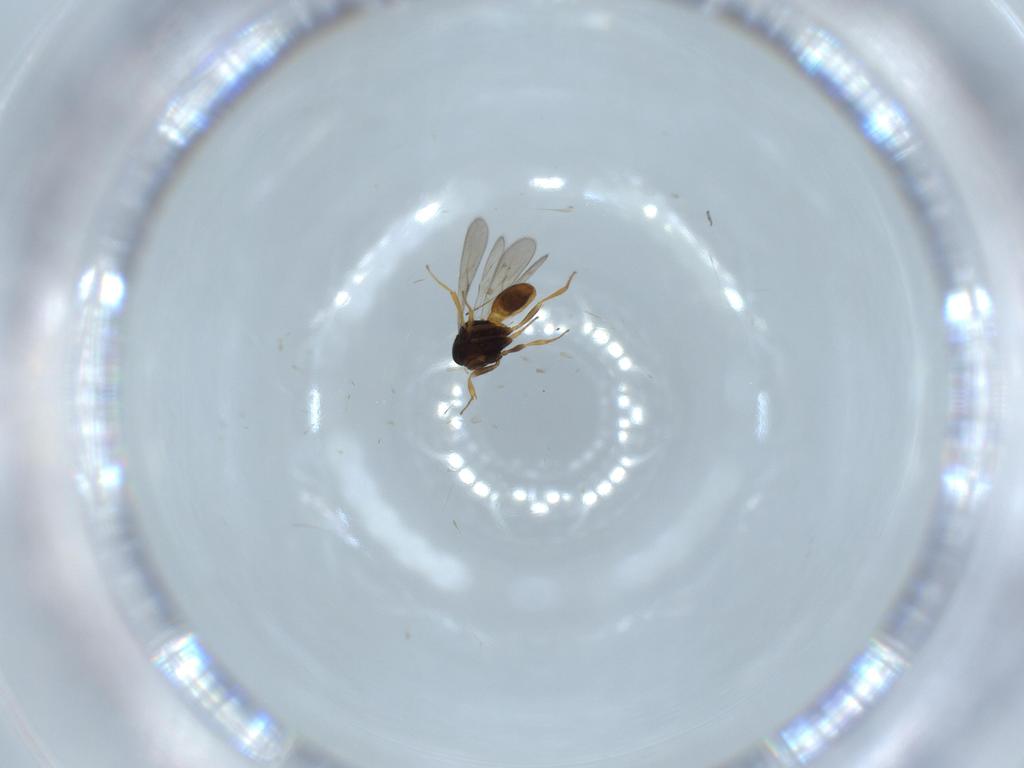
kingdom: Animalia
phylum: Arthropoda
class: Insecta
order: Hymenoptera
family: Scelionidae
